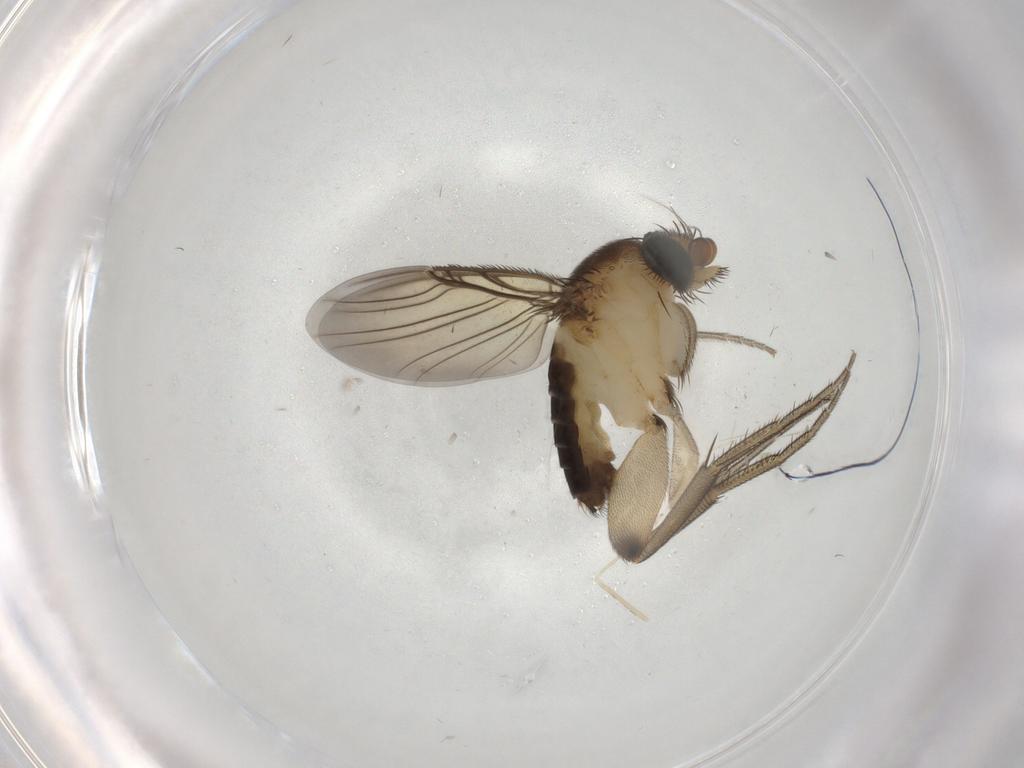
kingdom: Animalia
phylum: Arthropoda
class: Insecta
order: Diptera
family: Phoridae
